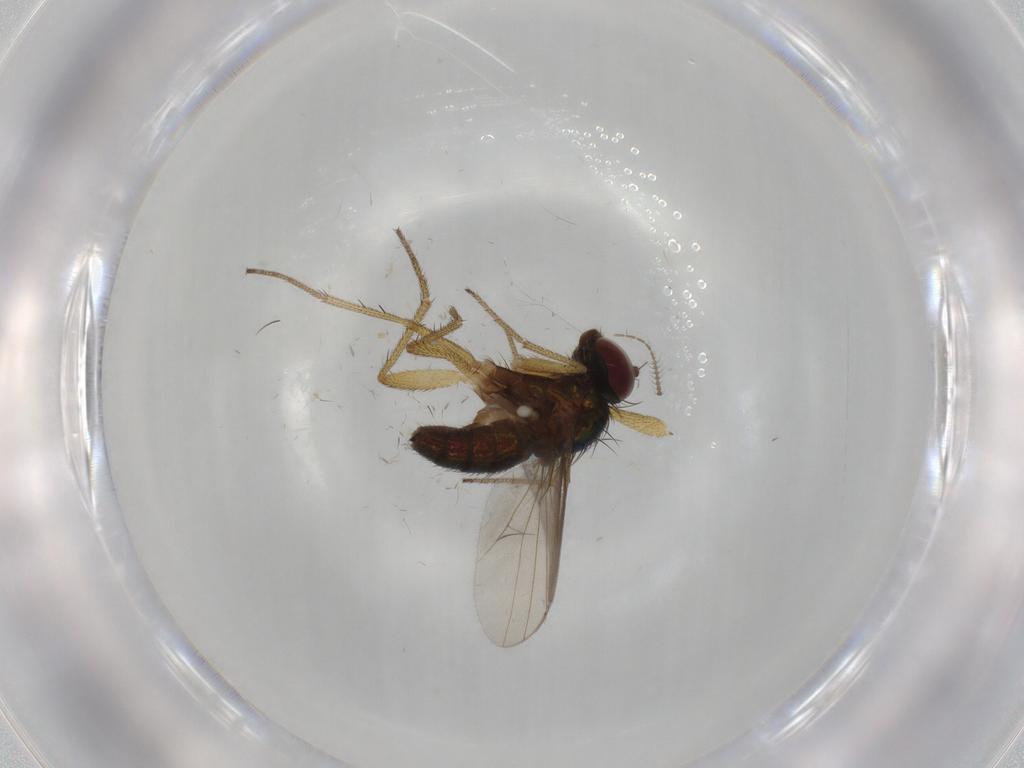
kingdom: Animalia
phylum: Arthropoda
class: Insecta
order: Diptera
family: Ceratopogonidae
